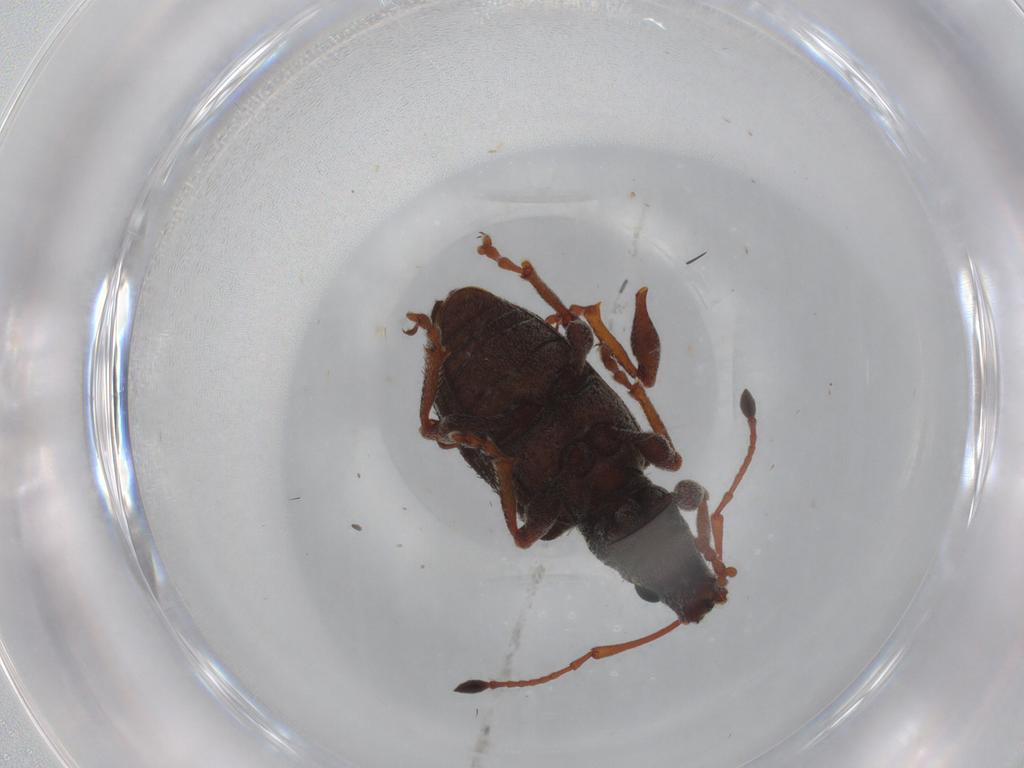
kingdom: Animalia
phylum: Arthropoda
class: Insecta
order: Coleoptera
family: Curculionidae
